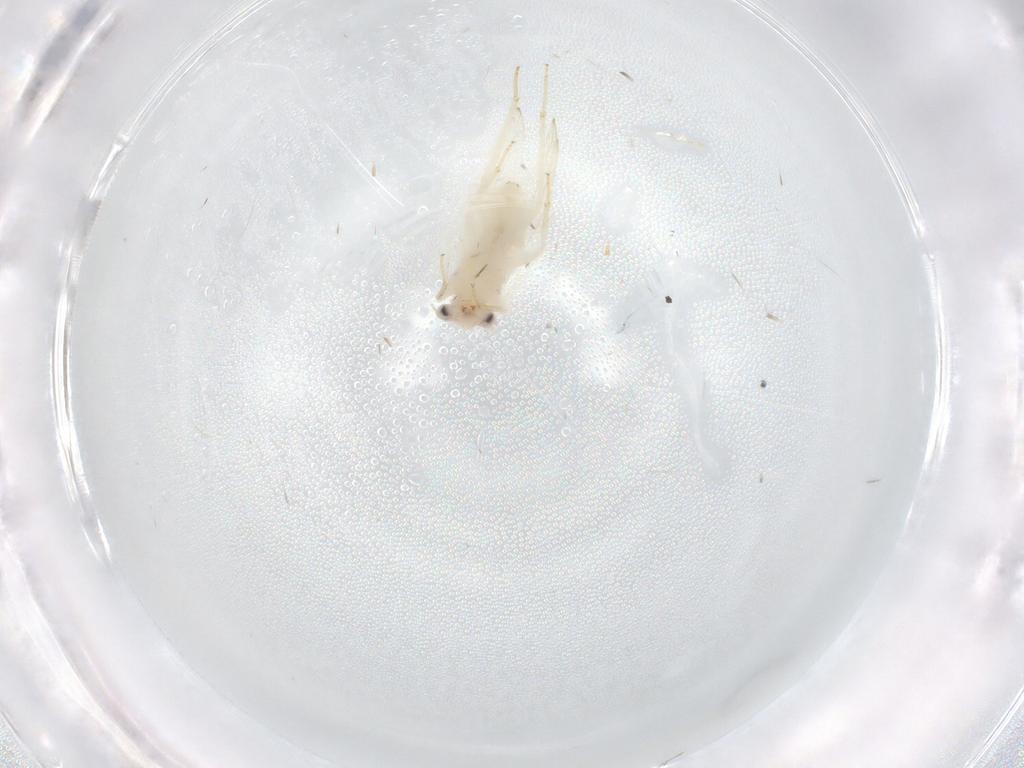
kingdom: Animalia
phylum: Arthropoda
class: Insecta
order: Psocodea
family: Lepidopsocidae
